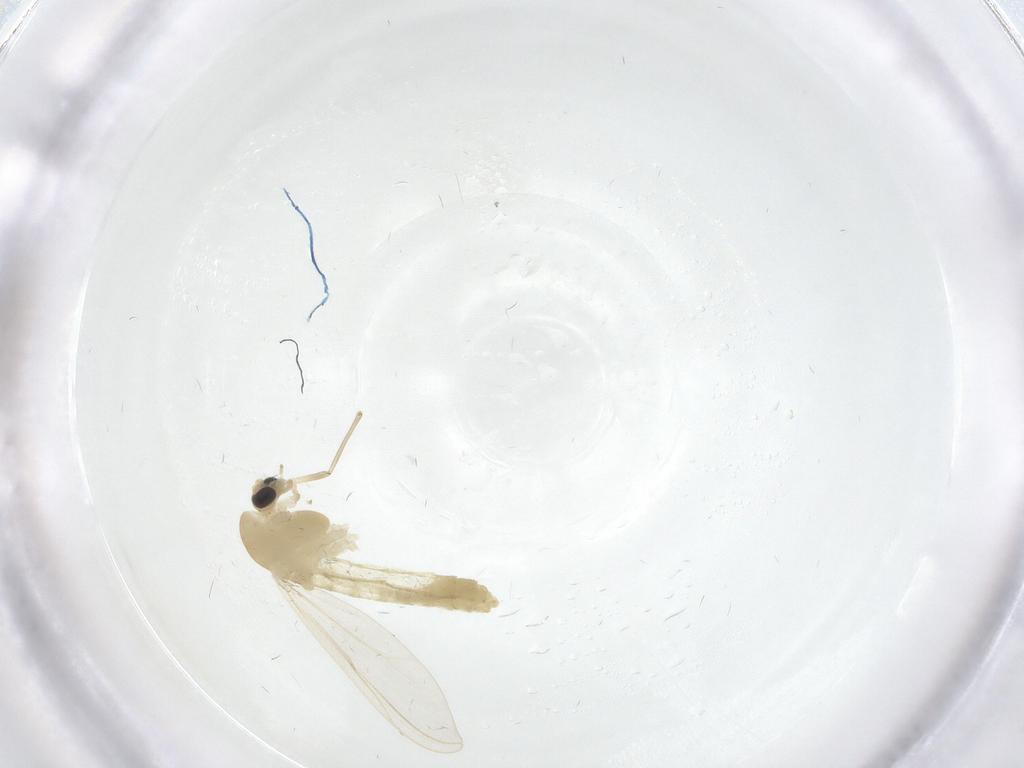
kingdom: Animalia
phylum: Arthropoda
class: Insecta
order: Diptera
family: Chironomidae
